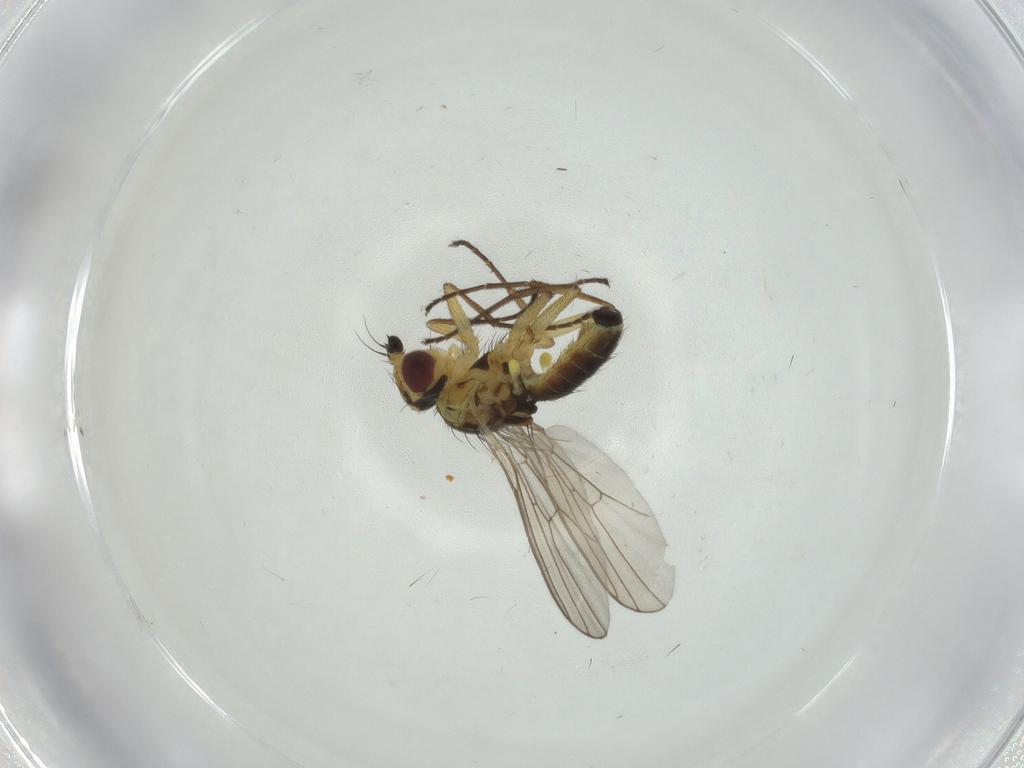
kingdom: Animalia
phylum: Arthropoda
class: Insecta
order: Diptera
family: Agromyzidae
